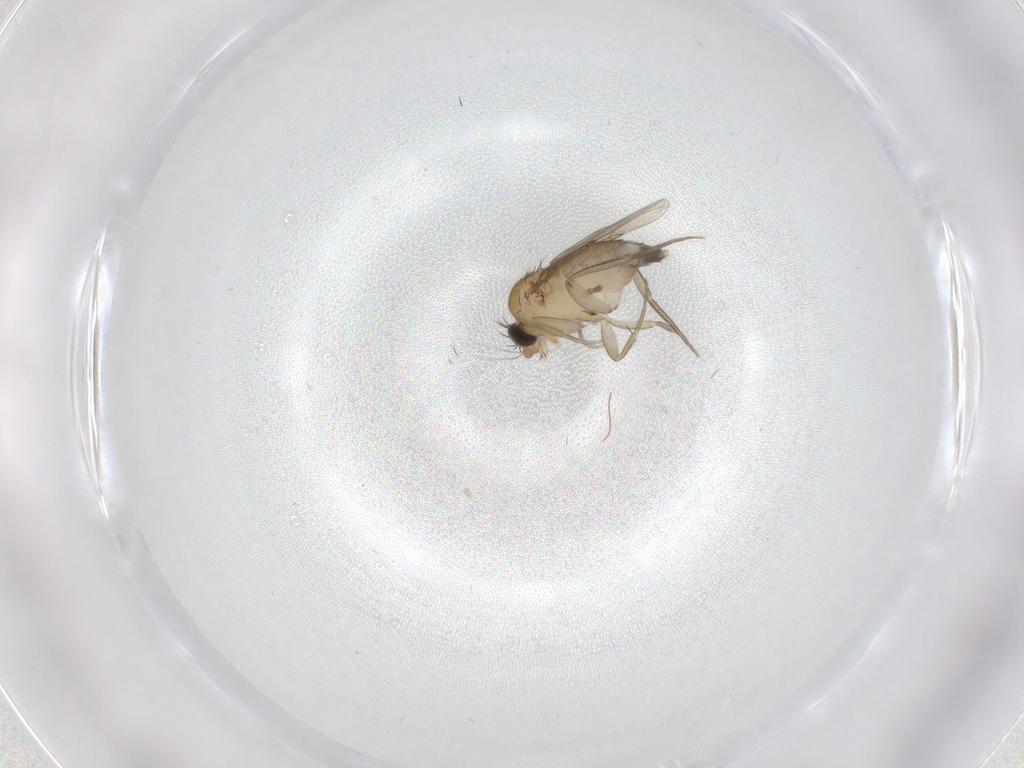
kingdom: Animalia
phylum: Arthropoda
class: Insecta
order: Diptera
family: Phoridae
